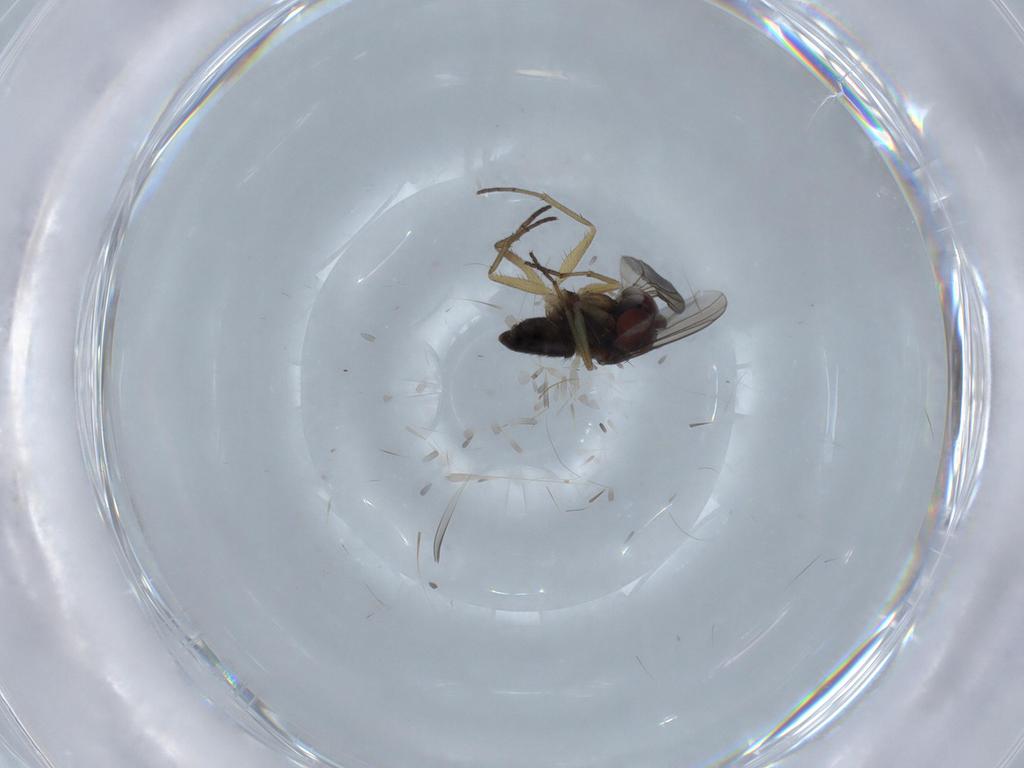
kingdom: Animalia
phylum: Arthropoda
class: Insecta
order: Diptera
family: Dolichopodidae
